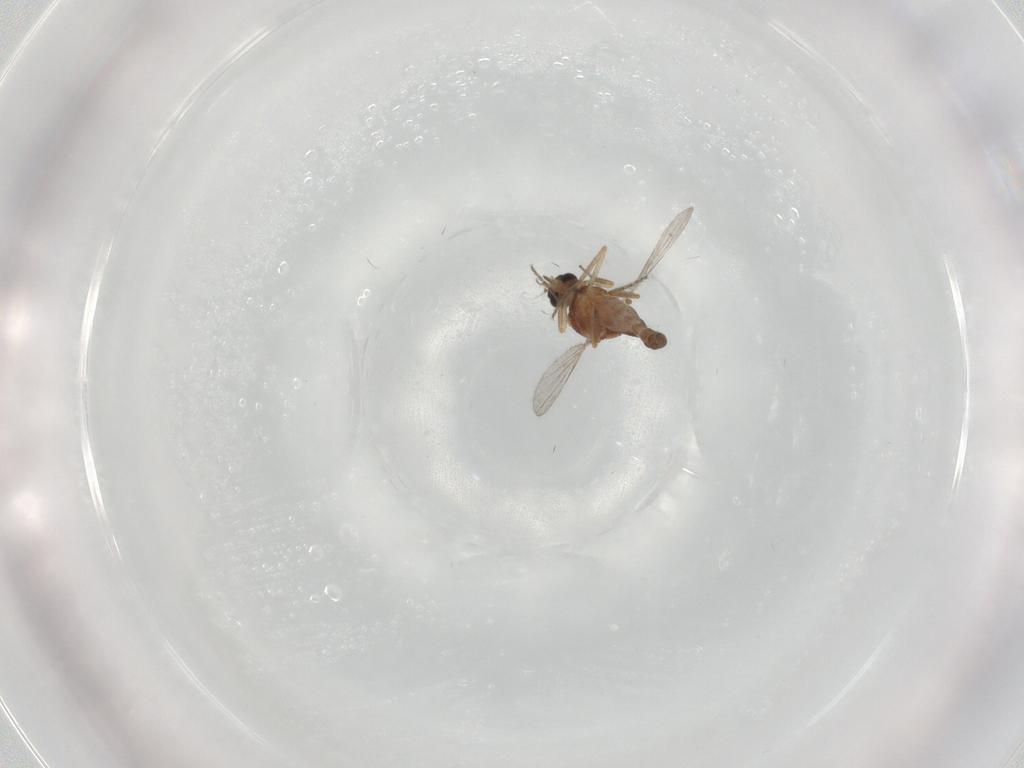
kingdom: Animalia
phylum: Arthropoda
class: Insecta
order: Diptera
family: Ceratopogonidae
